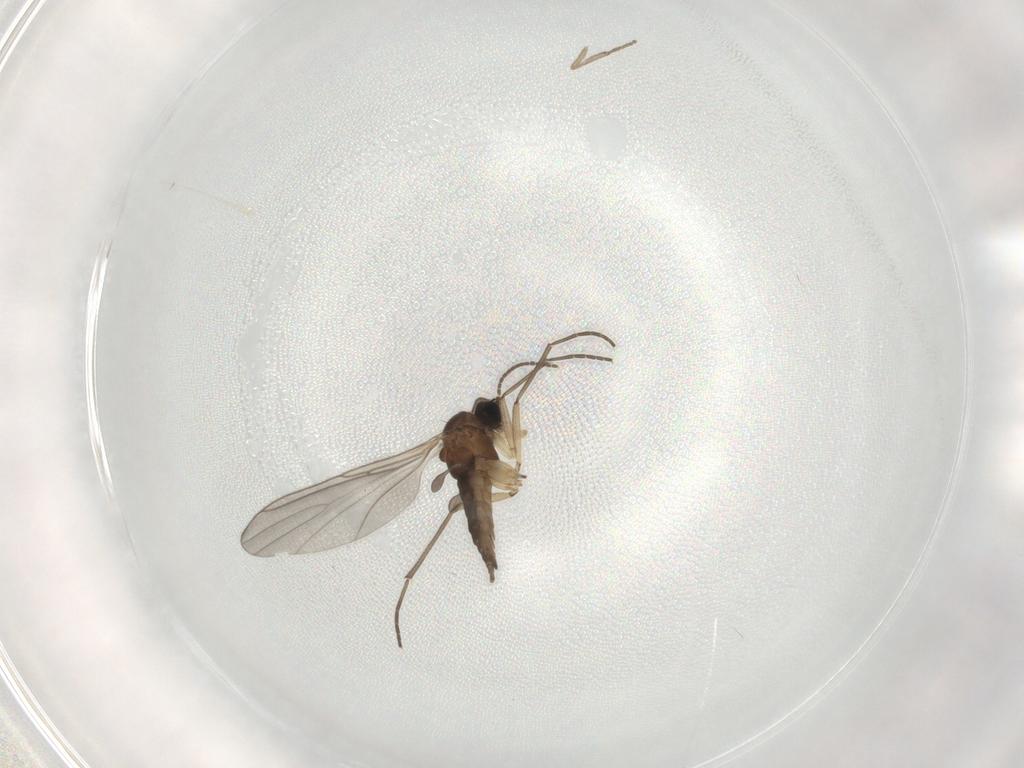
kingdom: Animalia
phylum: Arthropoda
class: Insecta
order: Diptera
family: Sciaridae
